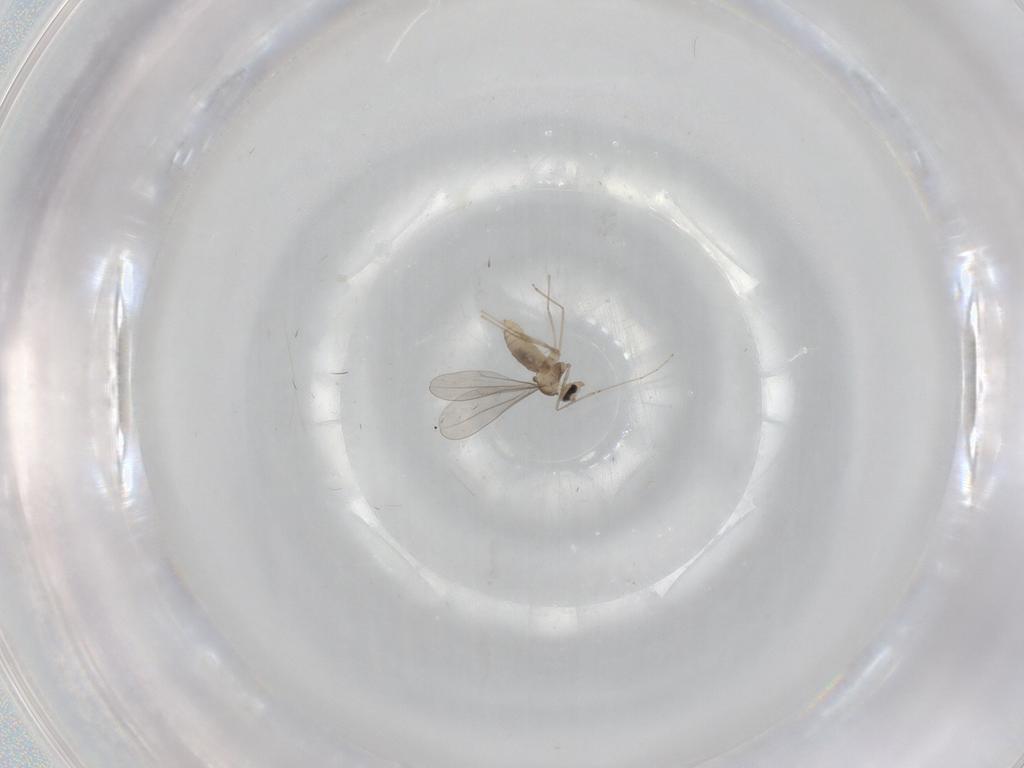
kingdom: Animalia
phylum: Arthropoda
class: Insecta
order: Diptera
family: Cecidomyiidae
